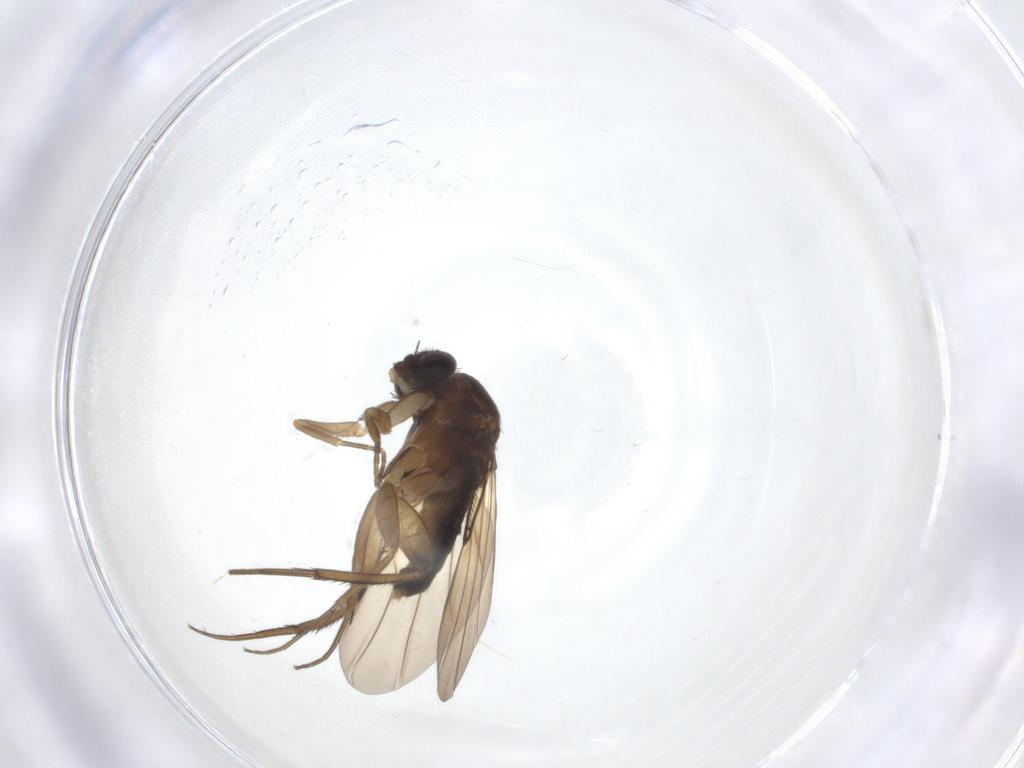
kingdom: Animalia
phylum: Arthropoda
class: Insecta
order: Diptera
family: Phoridae
